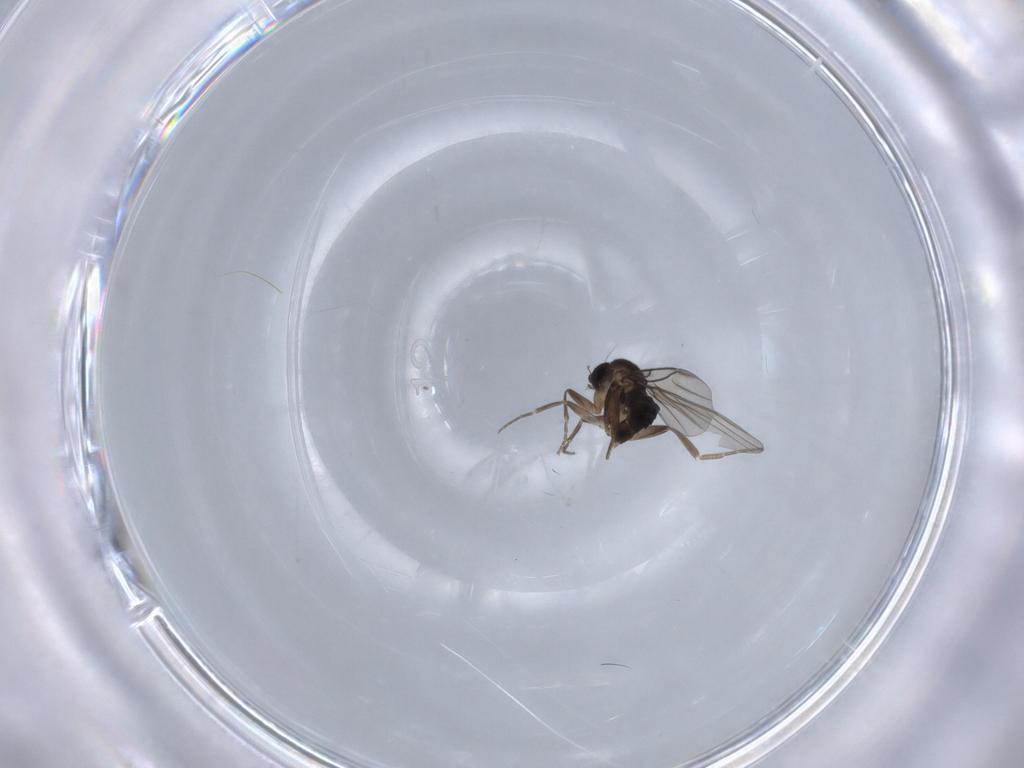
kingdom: Animalia
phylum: Arthropoda
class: Insecta
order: Diptera
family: Phoridae
